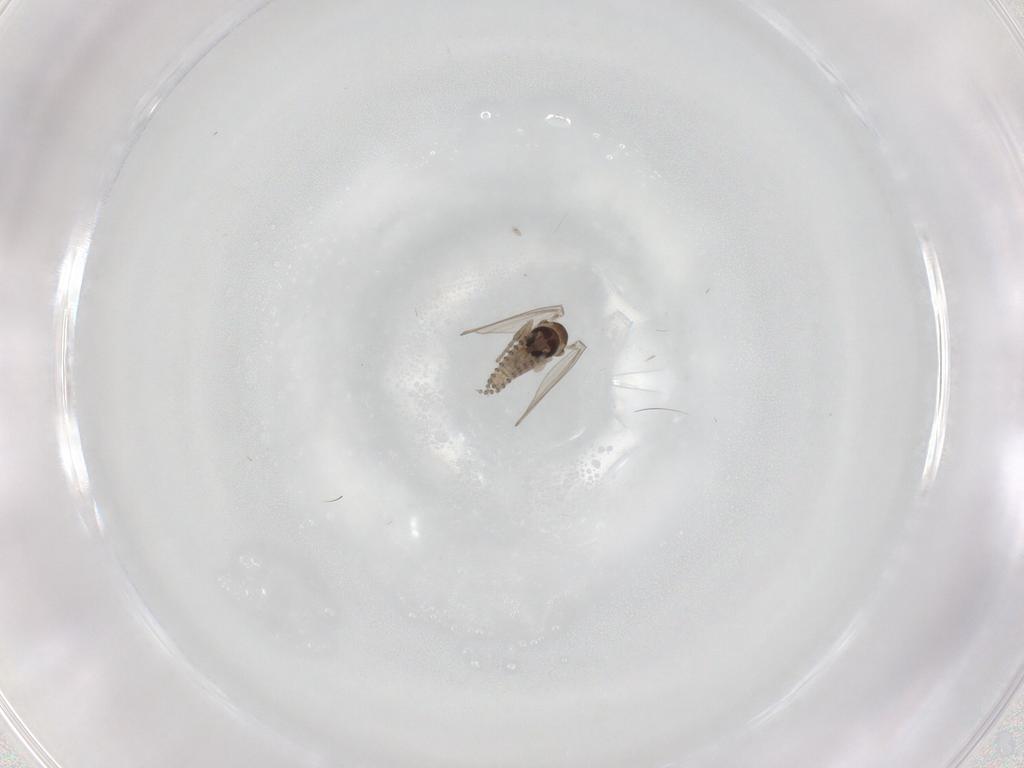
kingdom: Animalia
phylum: Arthropoda
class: Insecta
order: Diptera
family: Psychodidae
